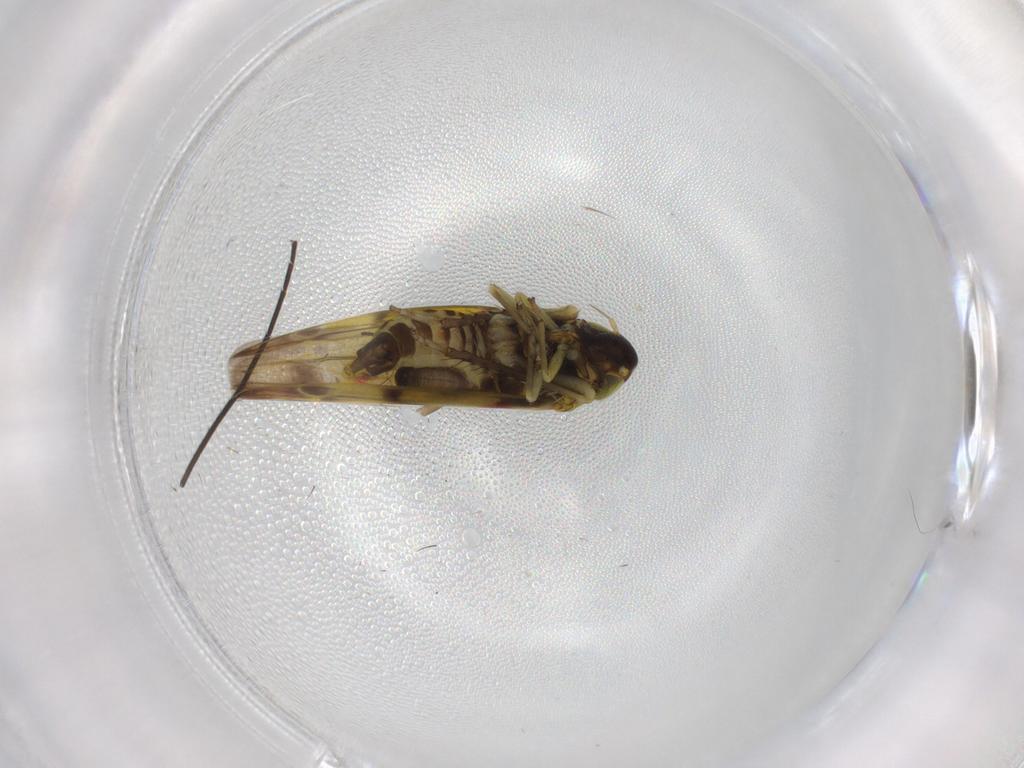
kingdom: Animalia
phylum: Arthropoda
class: Insecta
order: Hemiptera
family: Cicadellidae
